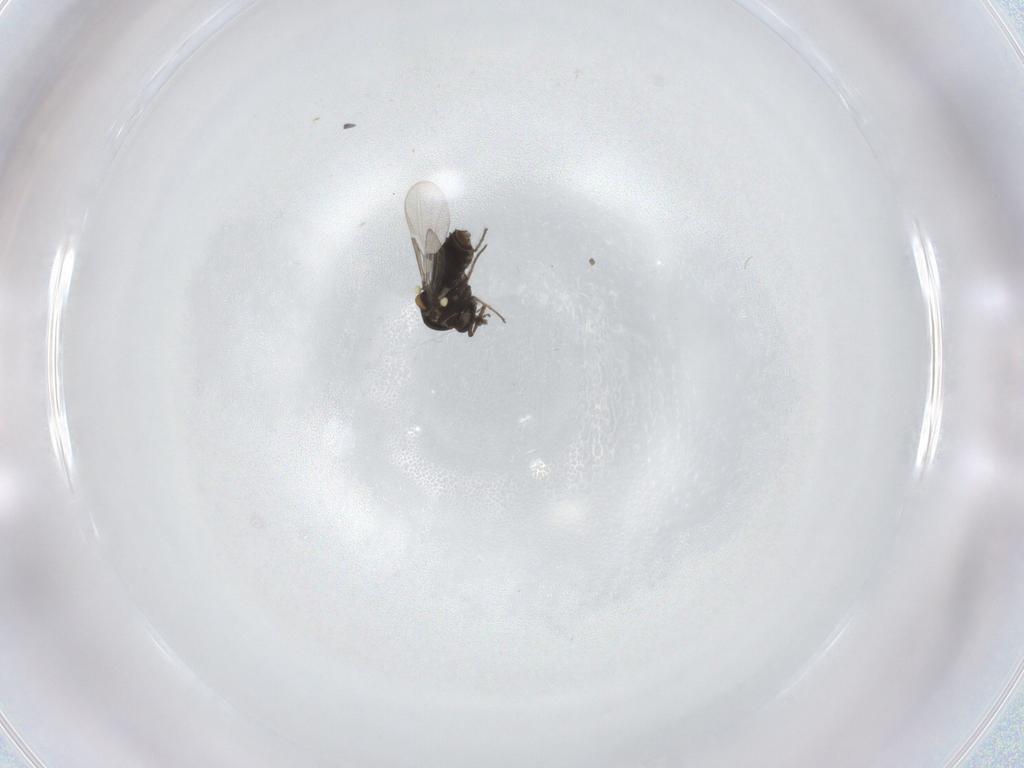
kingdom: Animalia
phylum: Arthropoda
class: Insecta
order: Diptera
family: Ceratopogonidae
